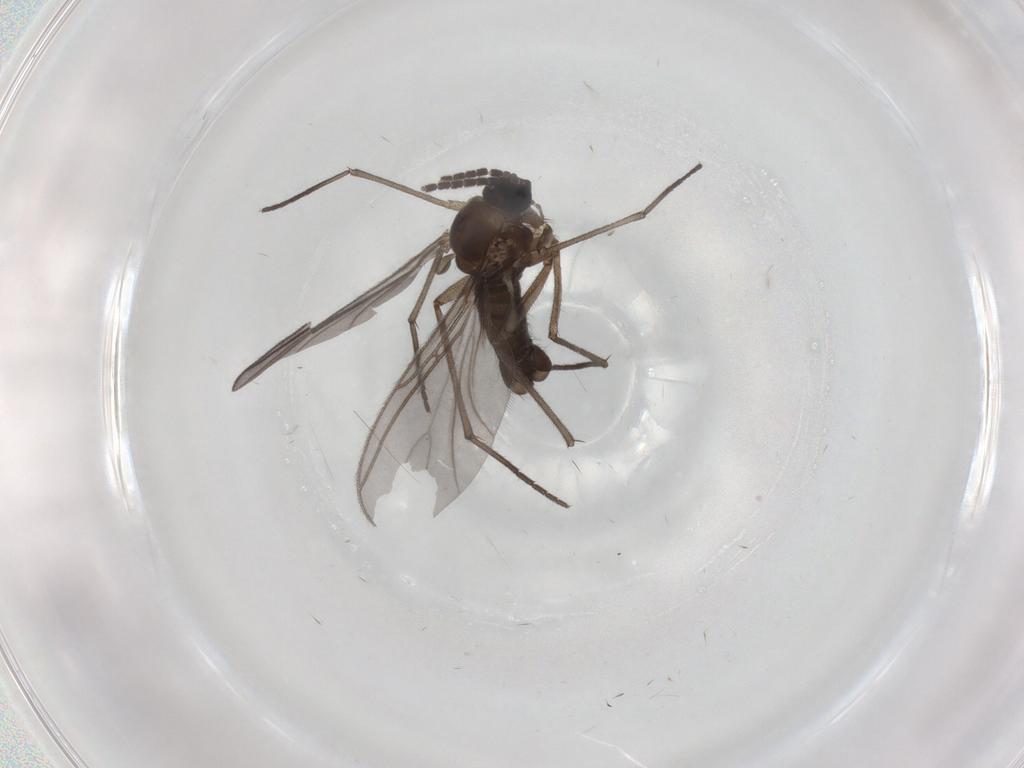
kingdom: Animalia
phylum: Arthropoda
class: Insecta
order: Diptera
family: Sciaridae
